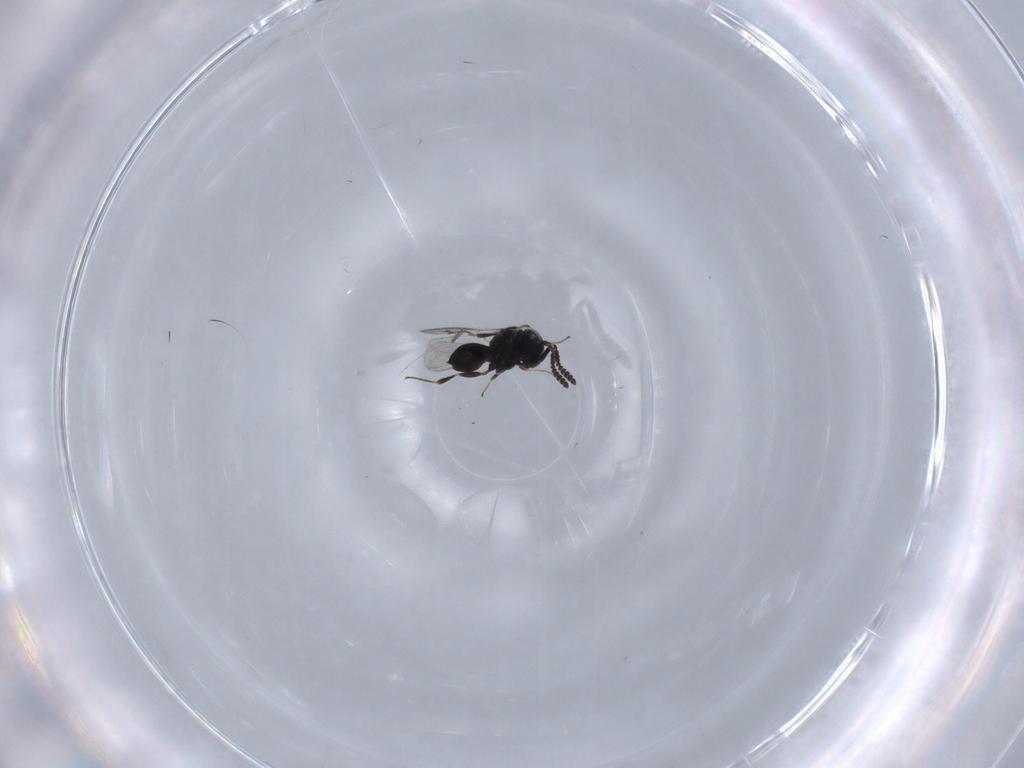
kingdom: Animalia
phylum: Arthropoda
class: Insecta
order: Hymenoptera
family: Scelionidae
